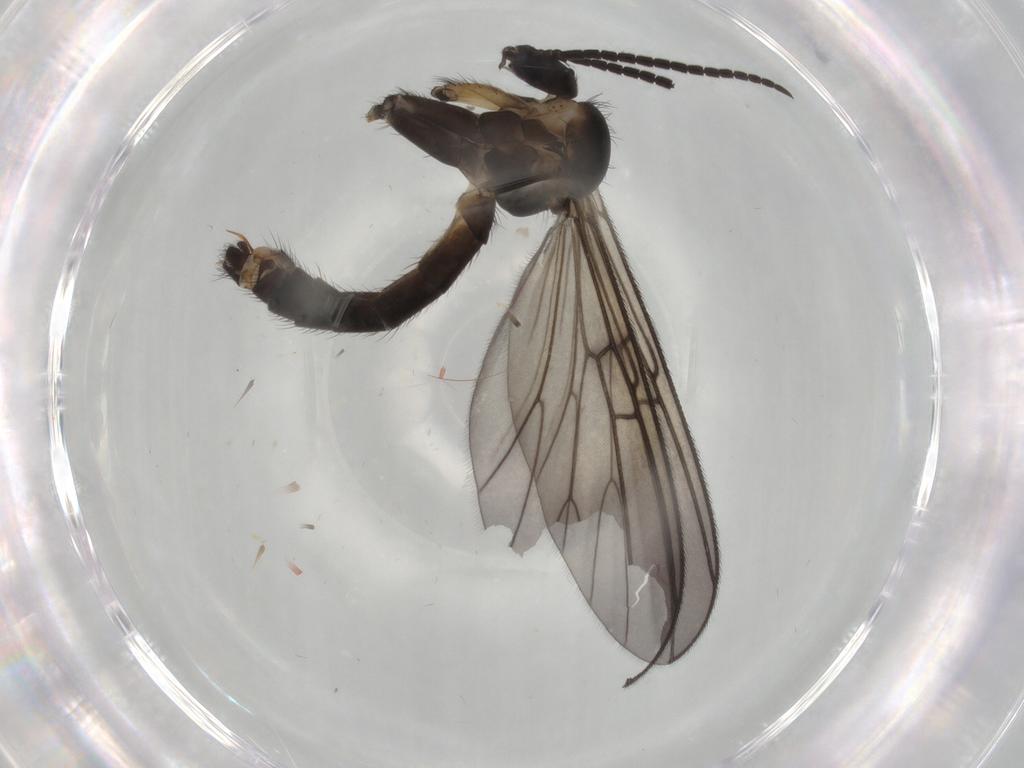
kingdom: Animalia
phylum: Arthropoda
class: Insecta
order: Diptera
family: Mycetophilidae
